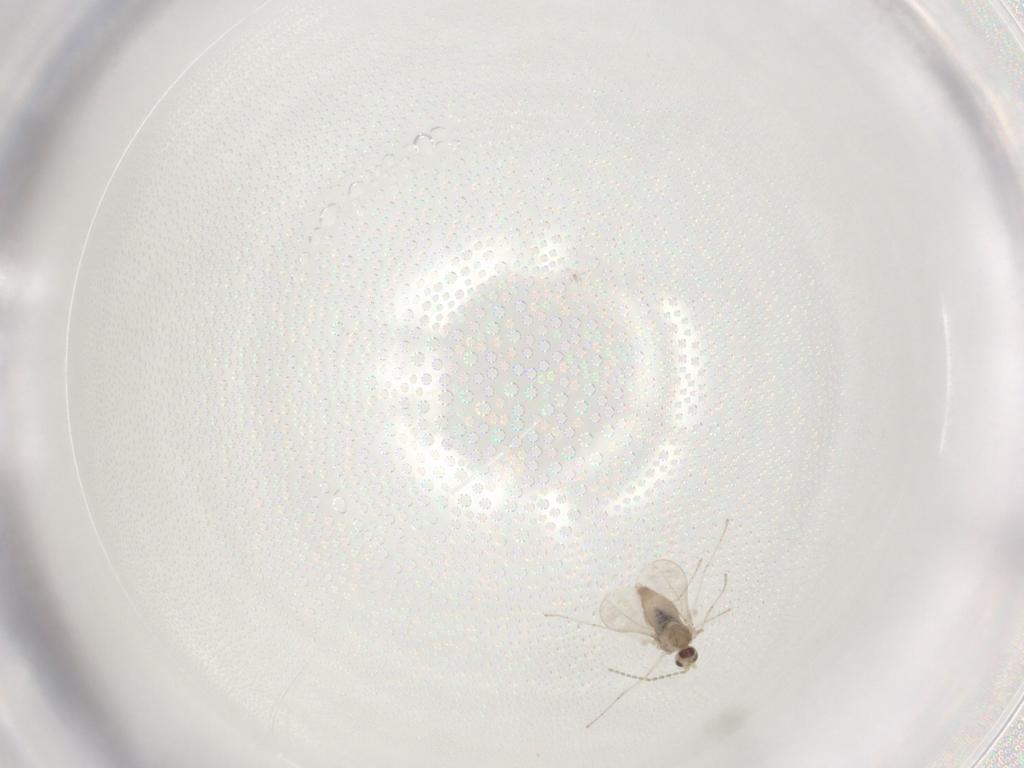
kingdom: Animalia
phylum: Arthropoda
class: Insecta
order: Diptera
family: Cecidomyiidae
